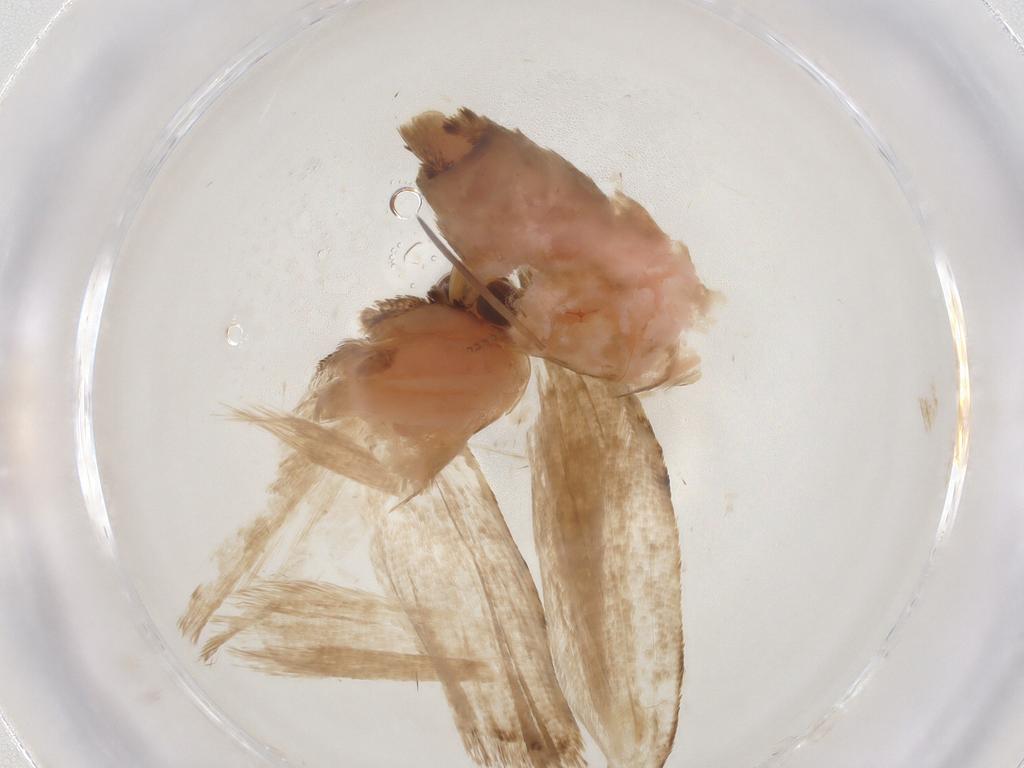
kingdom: Animalia
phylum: Arthropoda
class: Insecta
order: Lepidoptera
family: Noctuidae
